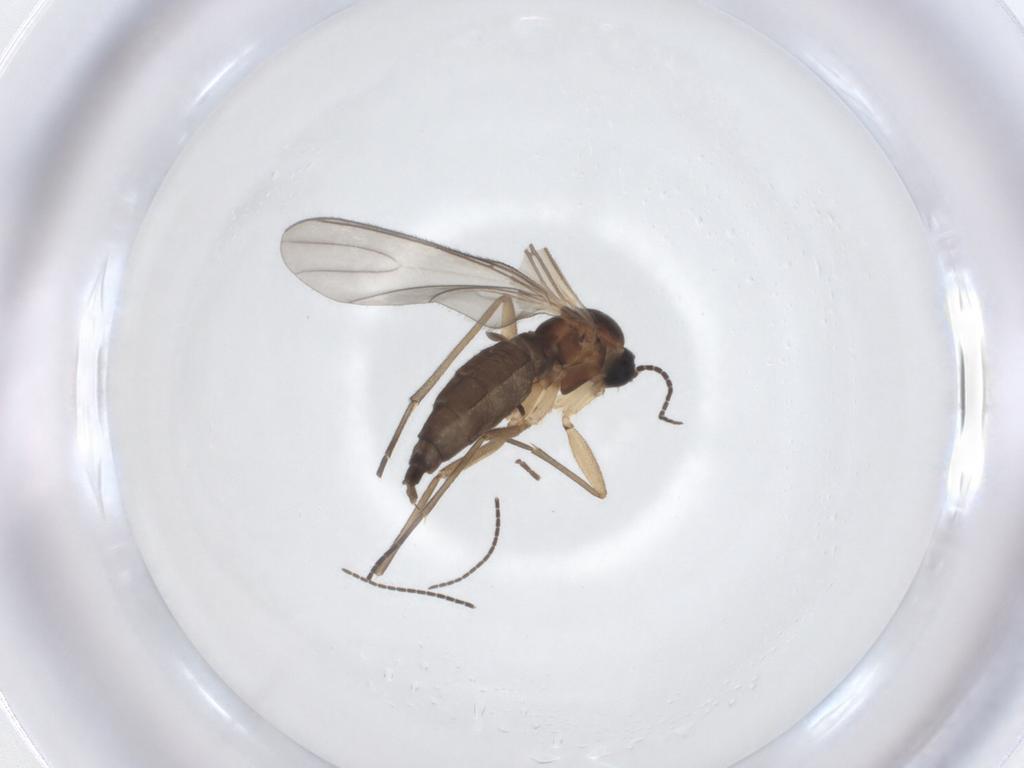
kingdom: Animalia
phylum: Arthropoda
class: Insecta
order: Diptera
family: Sciaridae
